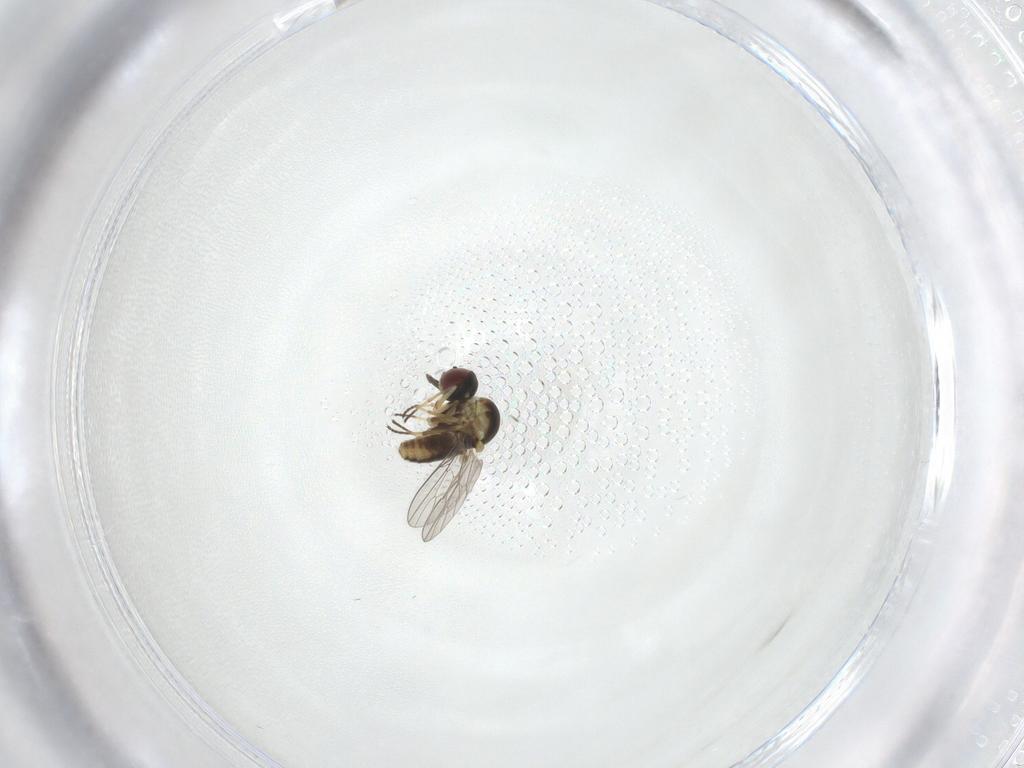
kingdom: Animalia
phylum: Arthropoda
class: Insecta
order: Diptera
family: Mythicomyiidae
